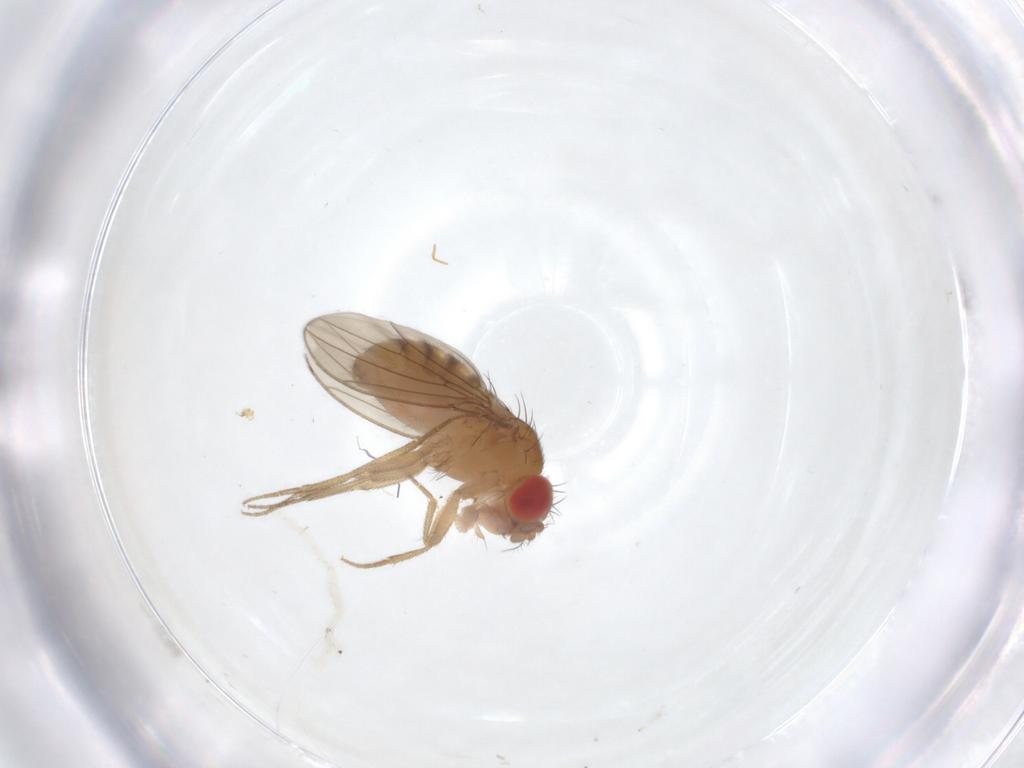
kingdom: Animalia
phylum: Arthropoda
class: Insecta
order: Diptera
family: Drosophilidae
